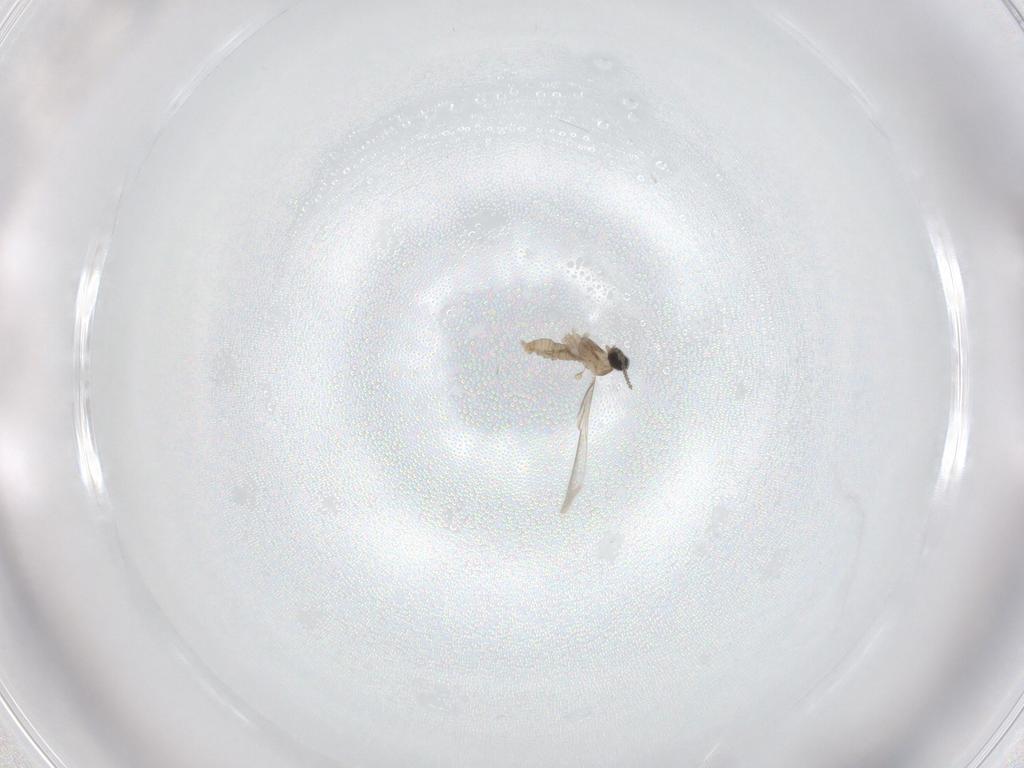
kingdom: Animalia
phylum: Arthropoda
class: Insecta
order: Diptera
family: Cecidomyiidae
